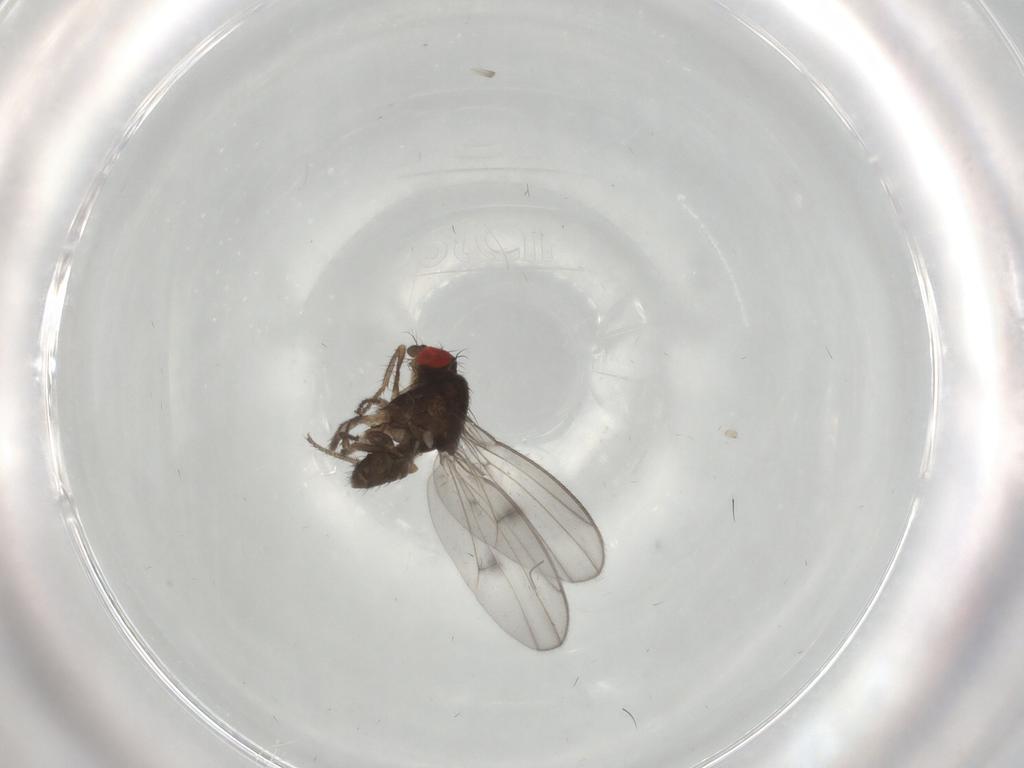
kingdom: Animalia
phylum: Arthropoda
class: Insecta
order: Diptera
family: Drosophilidae
